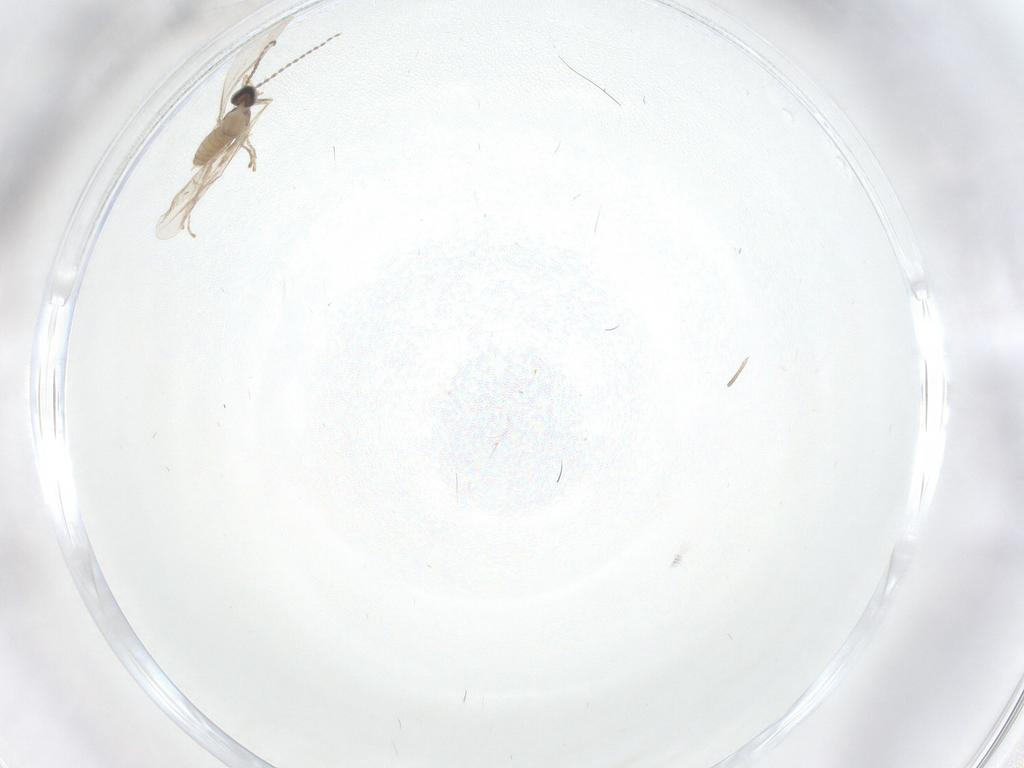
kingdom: Animalia
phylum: Arthropoda
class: Insecta
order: Diptera
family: Cecidomyiidae
